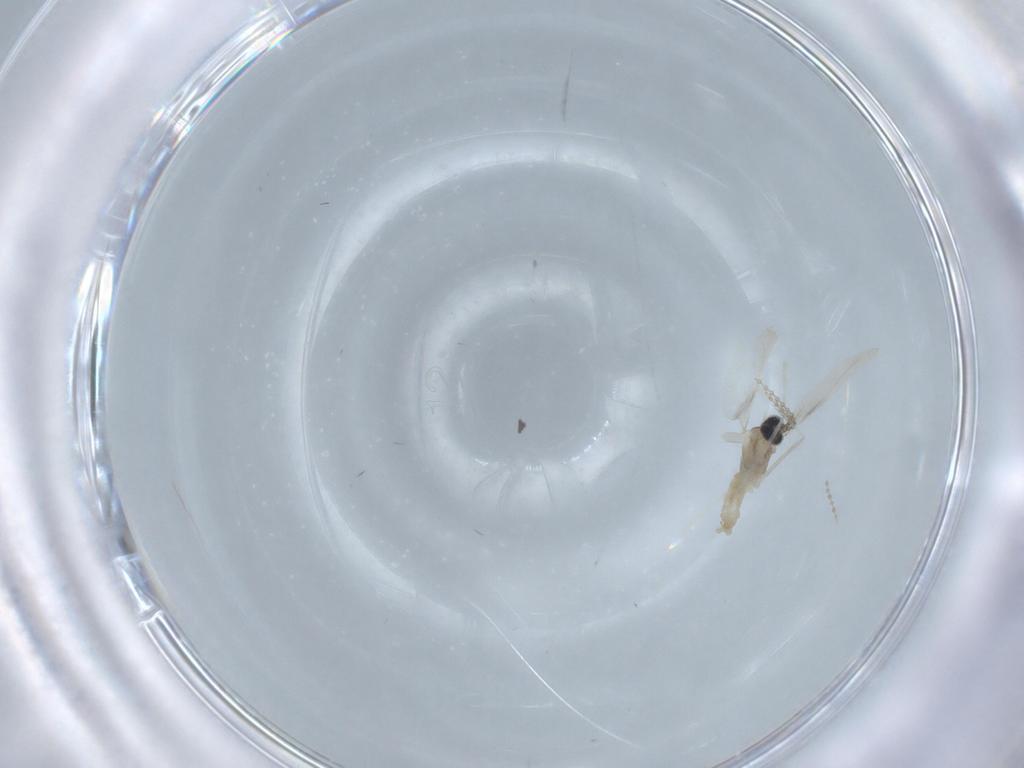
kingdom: Animalia
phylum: Arthropoda
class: Insecta
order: Diptera
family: Cecidomyiidae
